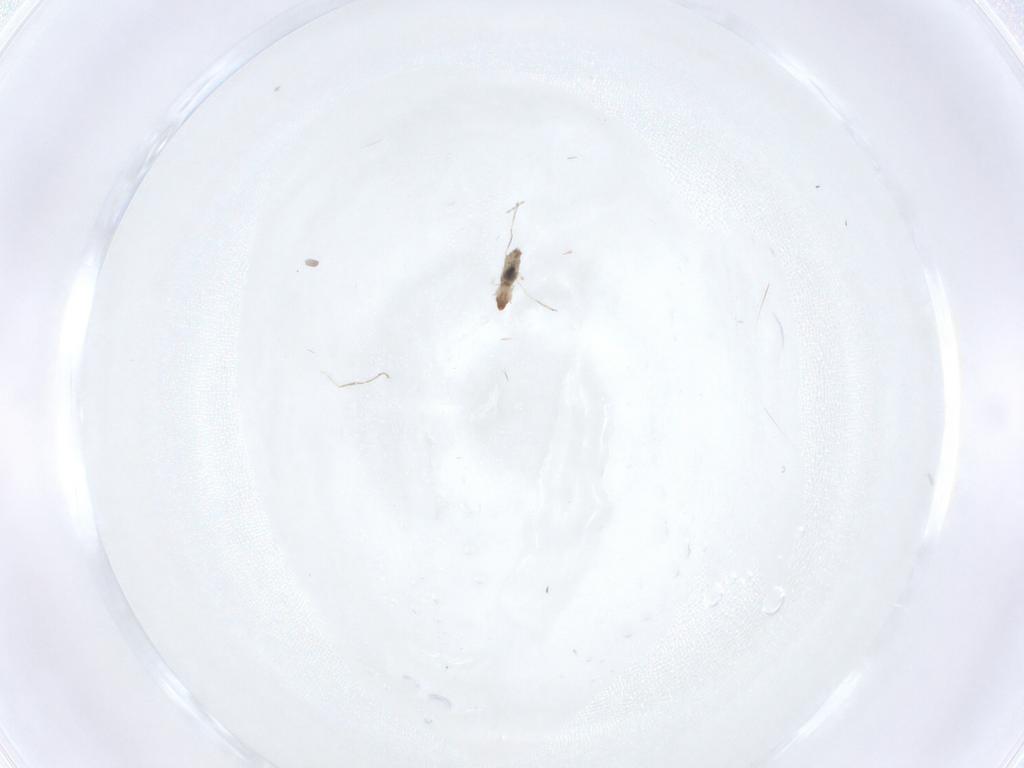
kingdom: Animalia
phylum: Arthropoda
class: Insecta
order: Diptera
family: Cecidomyiidae
